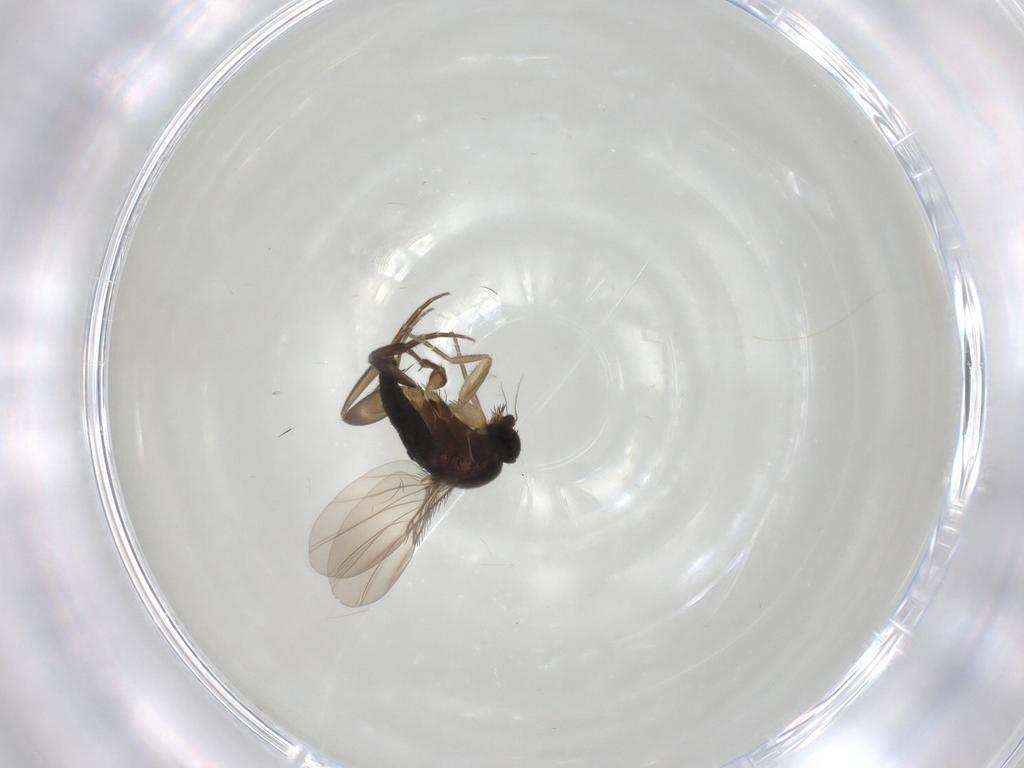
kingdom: Animalia
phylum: Arthropoda
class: Insecta
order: Diptera
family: Phoridae
